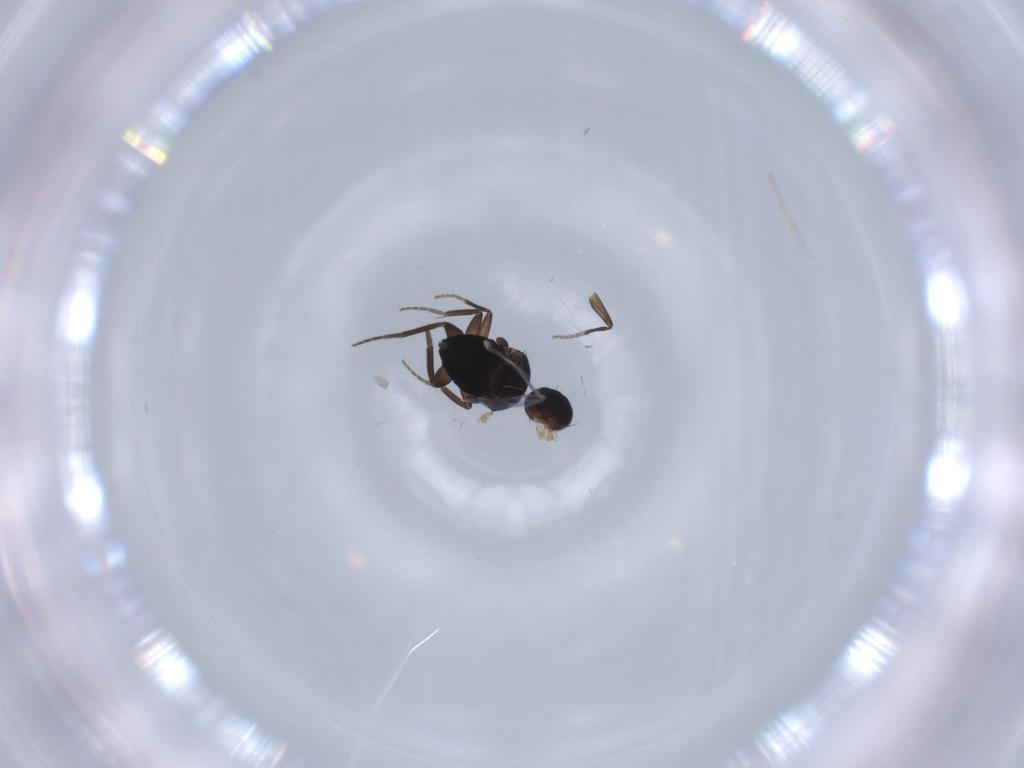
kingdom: Animalia
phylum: Arthropoda
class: Insecta
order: Diptera
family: Phoridae
